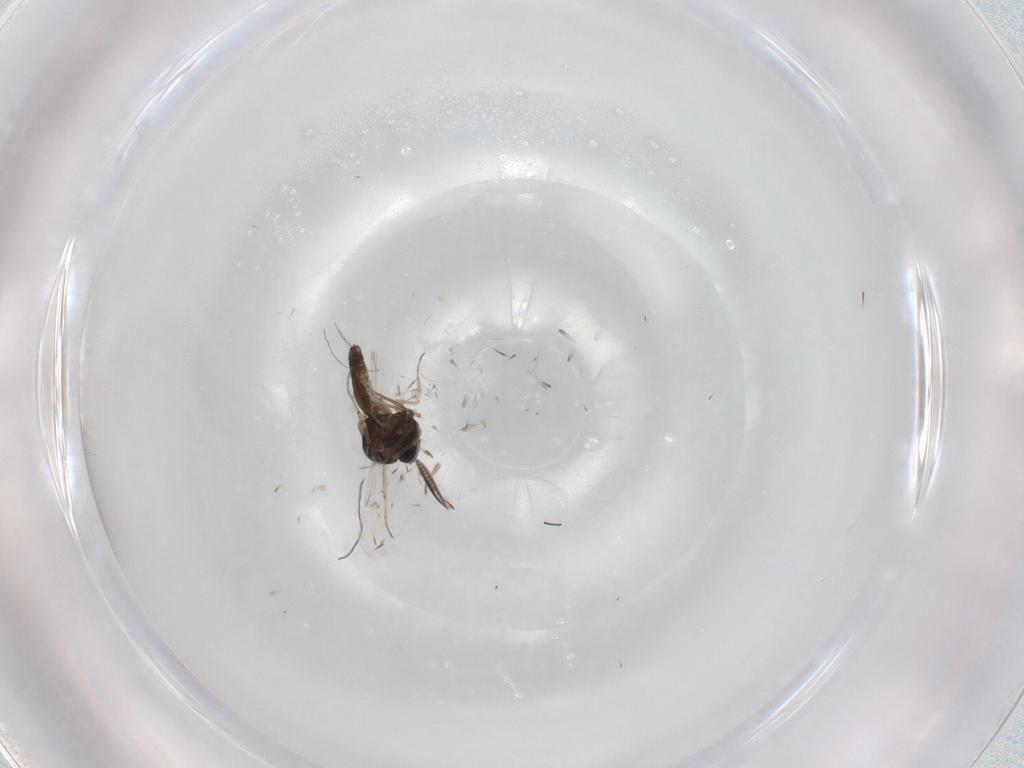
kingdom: Animalia
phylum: Arthropoda
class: Insecta
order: Diptera
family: Ceratopogonidae
